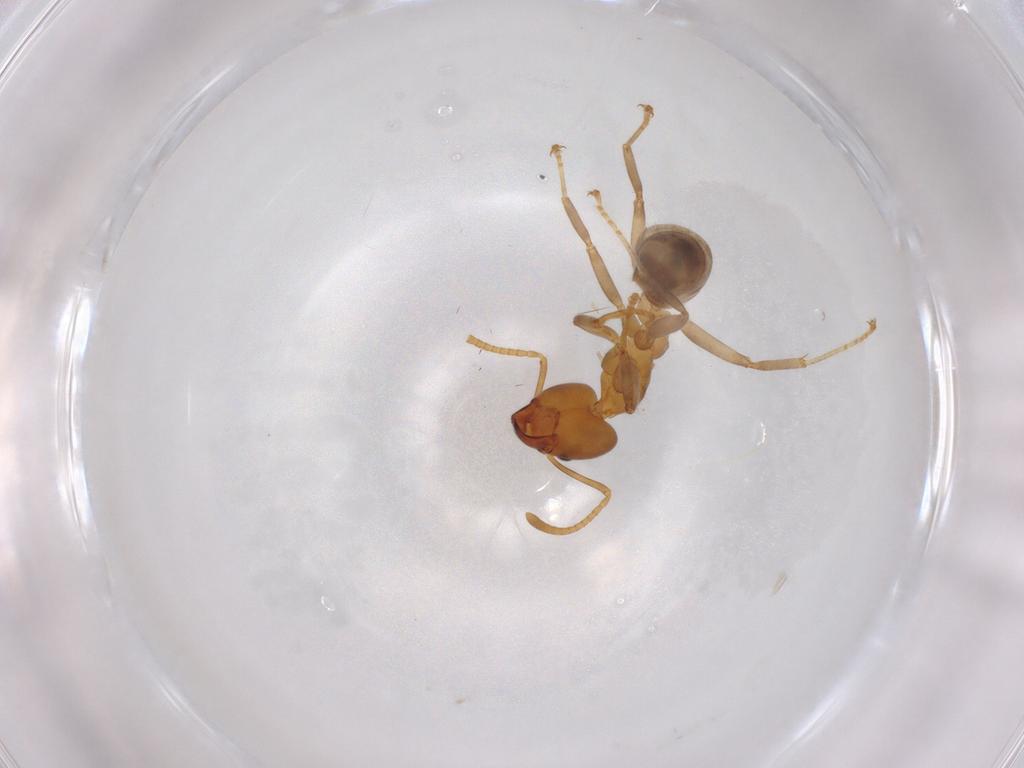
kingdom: Animalia
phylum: Arthropoda
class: Insecta
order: Hymenoptera
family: Formicidae
